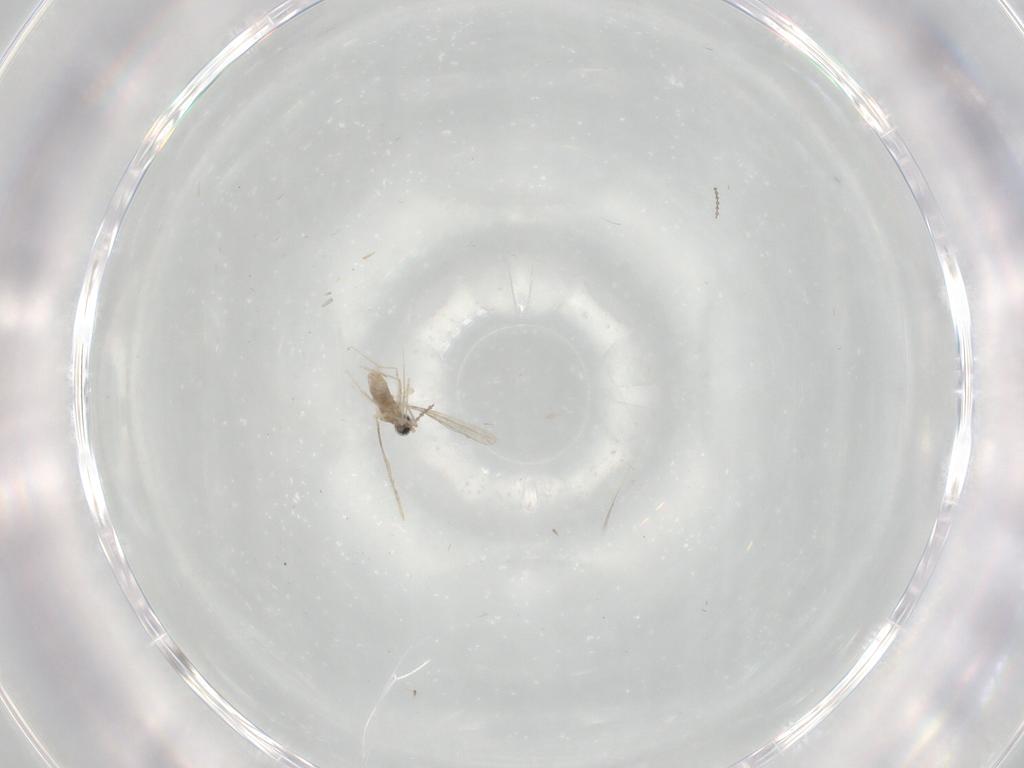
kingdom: Animalia
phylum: Arthropoda
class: Insecta
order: Diptera
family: Cecidomyiidae
